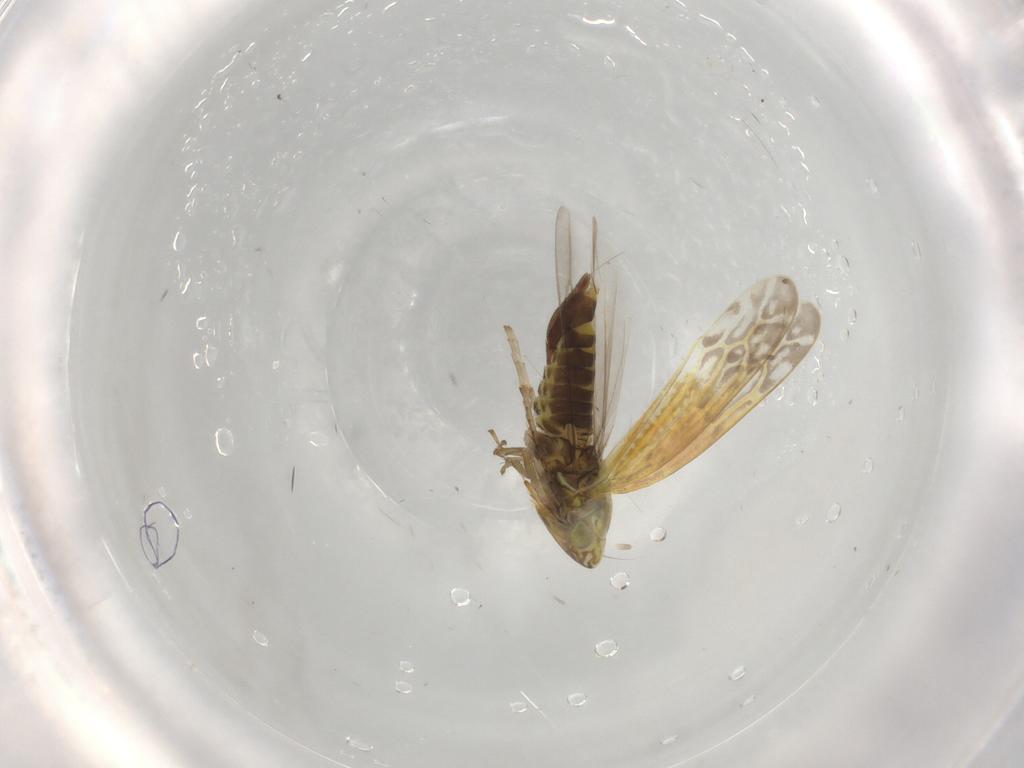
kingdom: Animalia
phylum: Arthropoda
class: Insecta
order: Hemiptera
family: Cicadellidae
